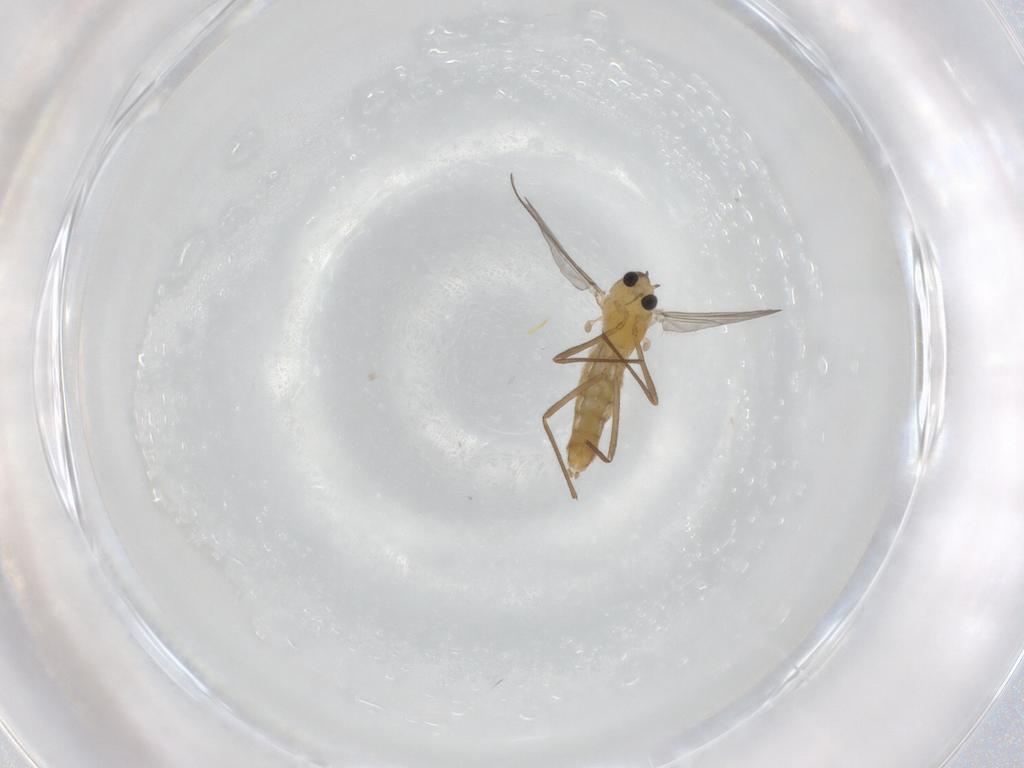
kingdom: Animalia
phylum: Arthropoda
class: Insecta
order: Diptera
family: Chironomidae
